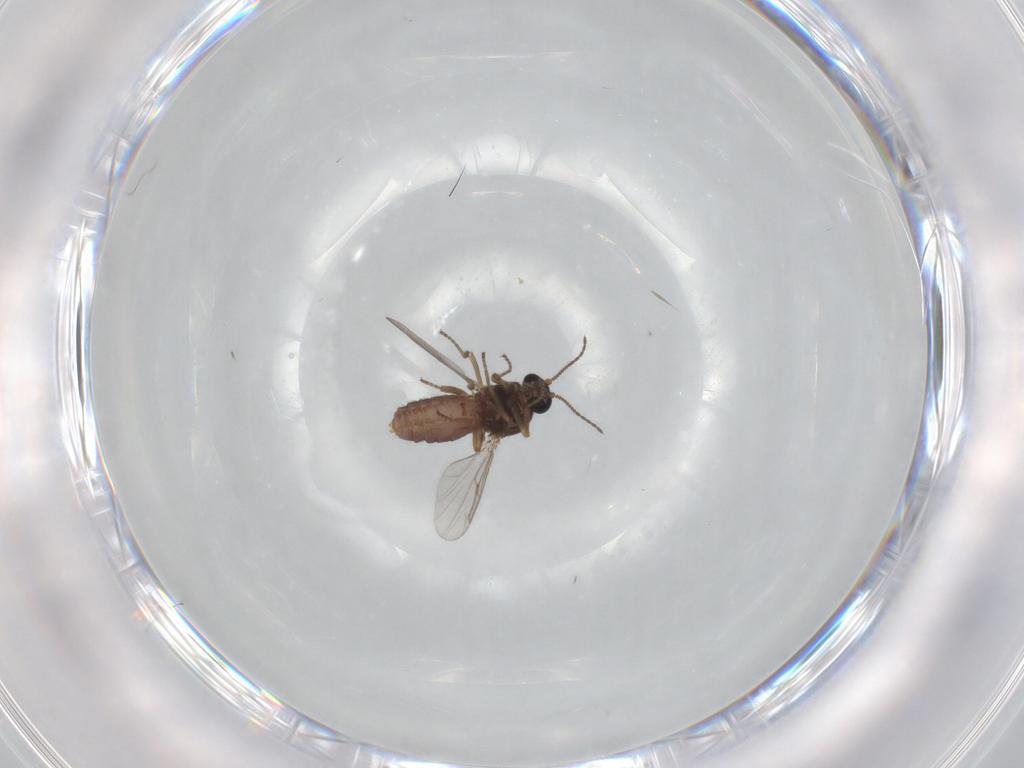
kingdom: Animalia
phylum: Arthropoda
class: Insecta
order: Diptera
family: Ceratopogonidae
